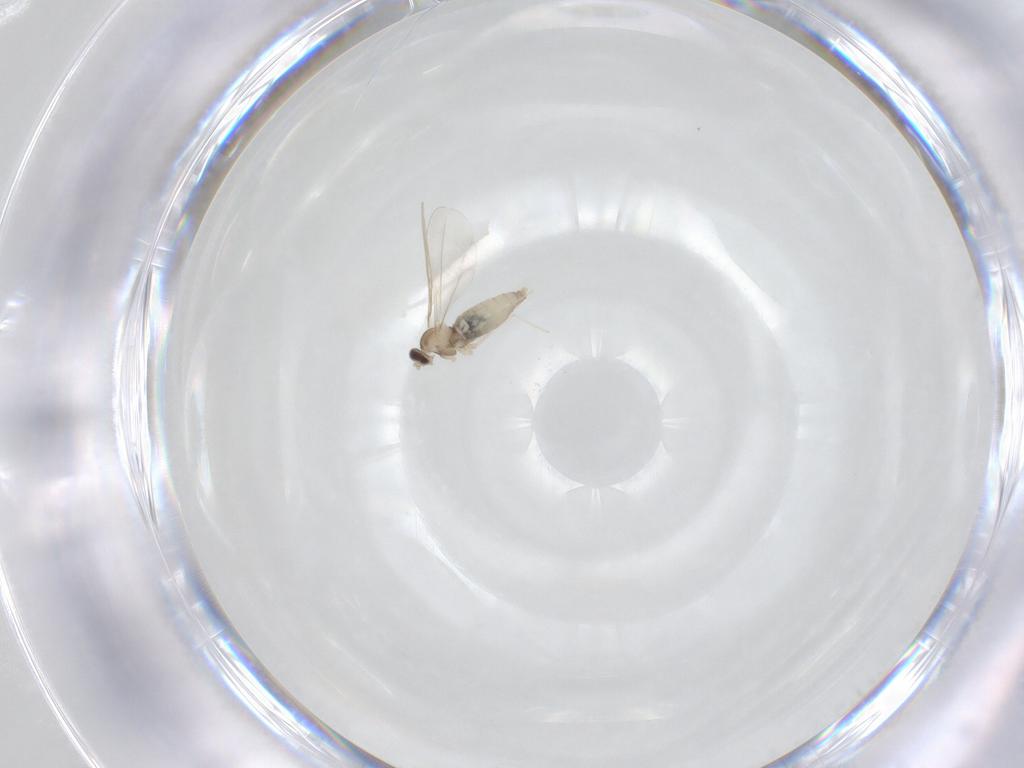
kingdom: Animalia
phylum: Arthropoda
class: Insecta
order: Diptera
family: Cecidomyiidae
